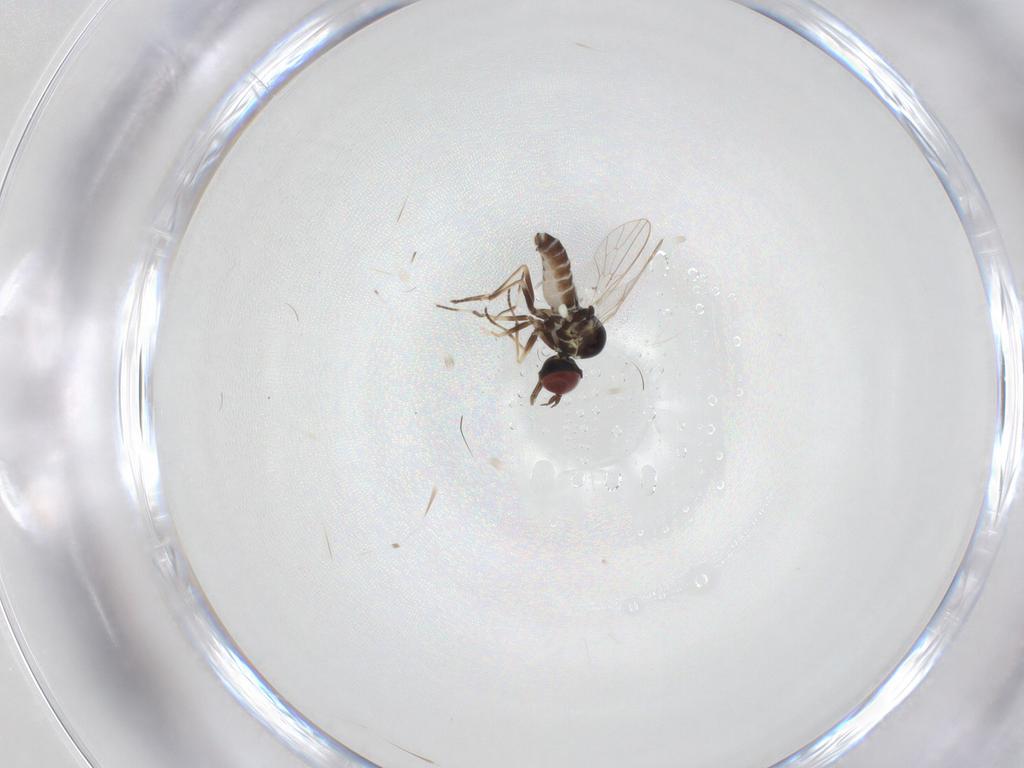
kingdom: Animalia
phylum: Arthropoda
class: Insecta
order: Diptera
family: Mythicomyiidae
